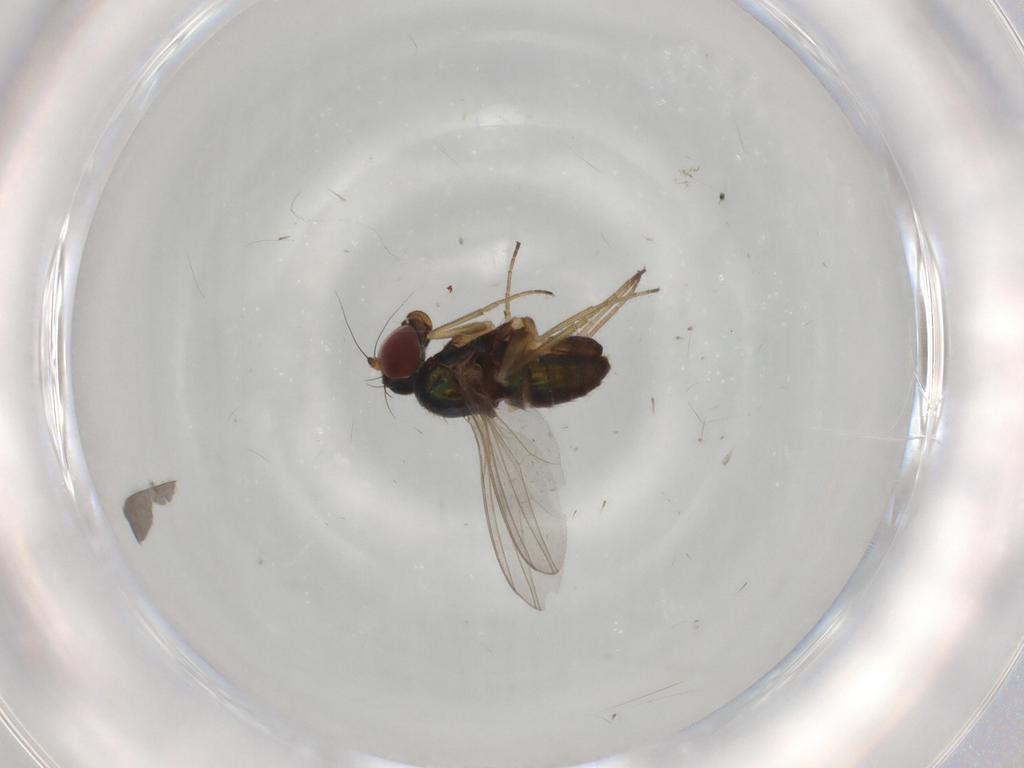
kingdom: Animalia
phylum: Arthropoda
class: Insecta
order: Diptera
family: Dolichopodidae
